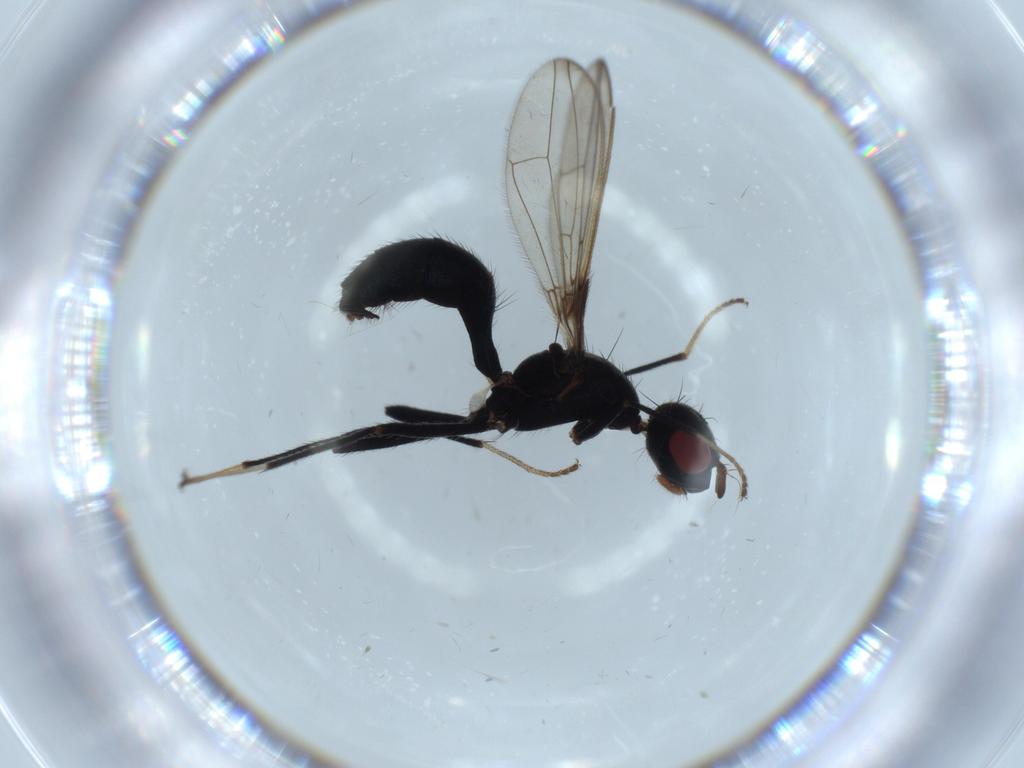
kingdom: Animalia
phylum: Arthropoda
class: Insecta
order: Diptera
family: Richardiidae
